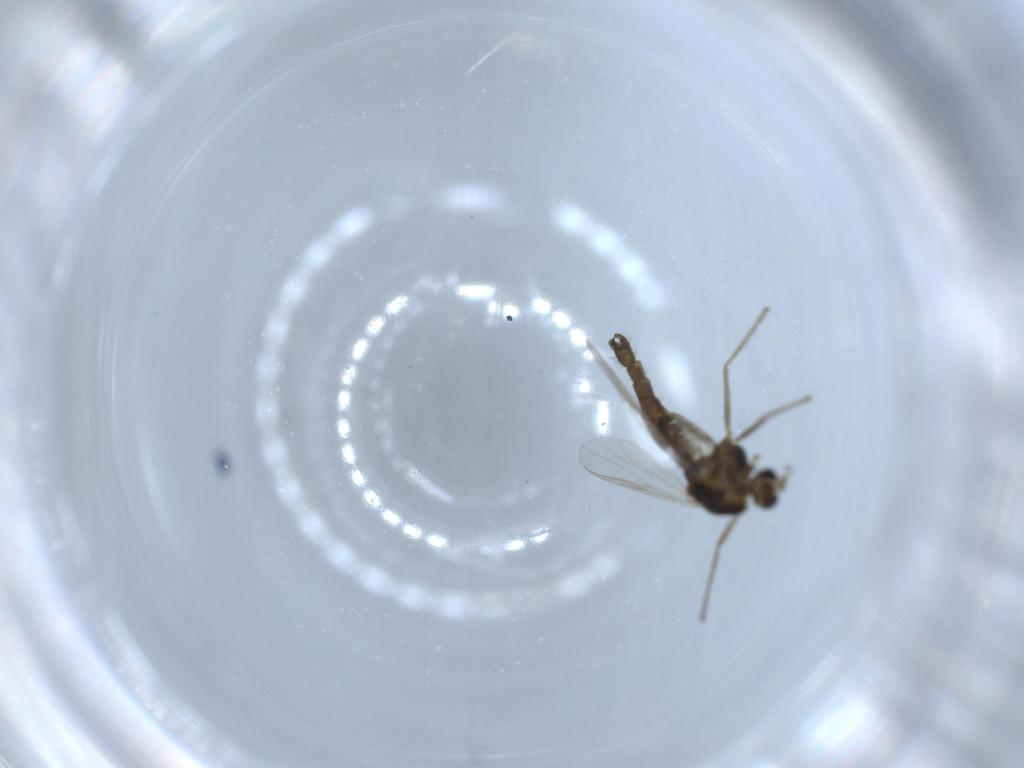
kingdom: Animalia
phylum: Arthropoda
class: Insecta
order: Diptera
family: Chironomidae
